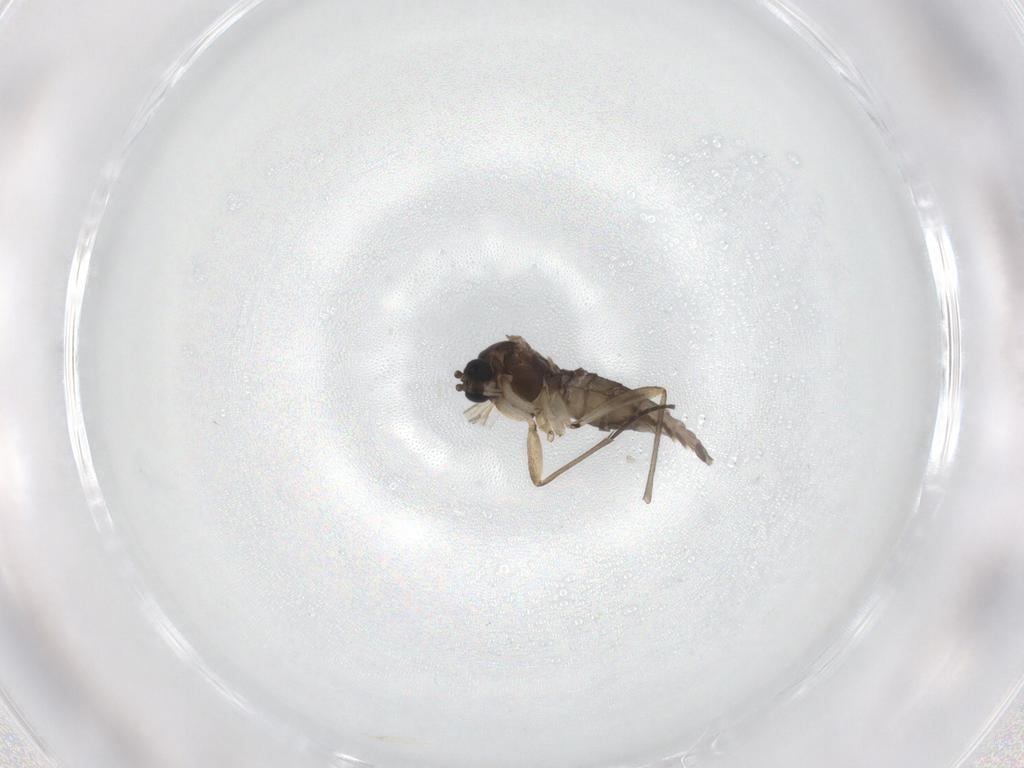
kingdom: Animalia
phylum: Arthropoda
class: Insecta
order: Diptera
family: Sciaridae
